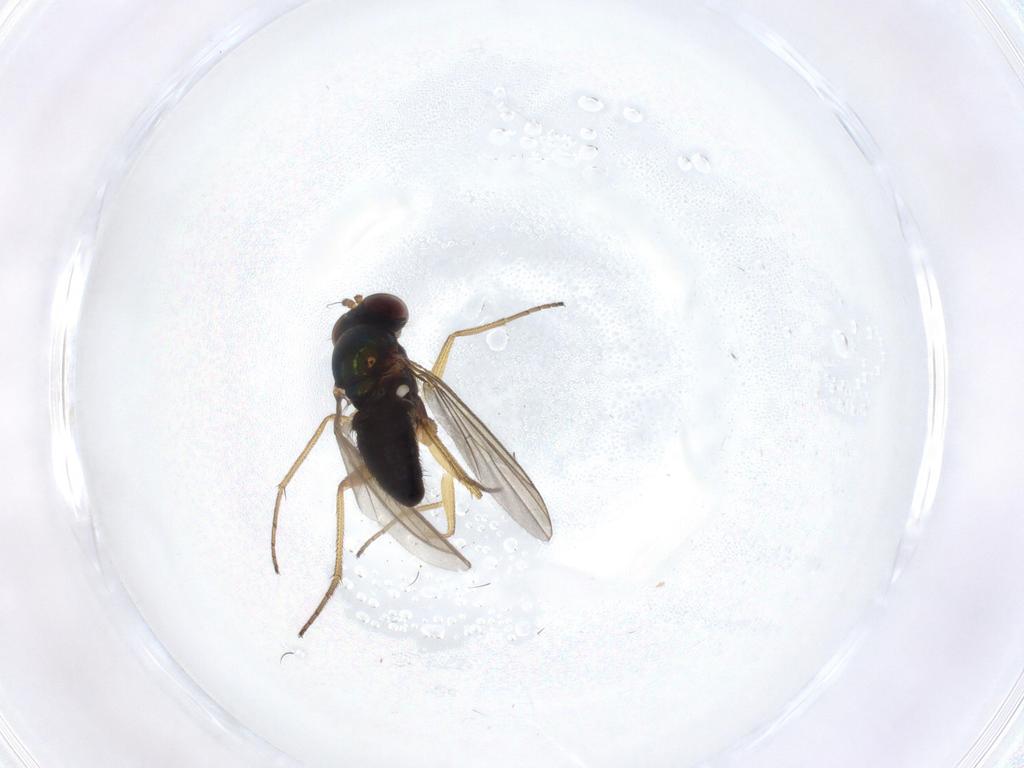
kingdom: Animalia
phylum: Arthropoda
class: Insecta
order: Diptera
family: Dolichopodidae
